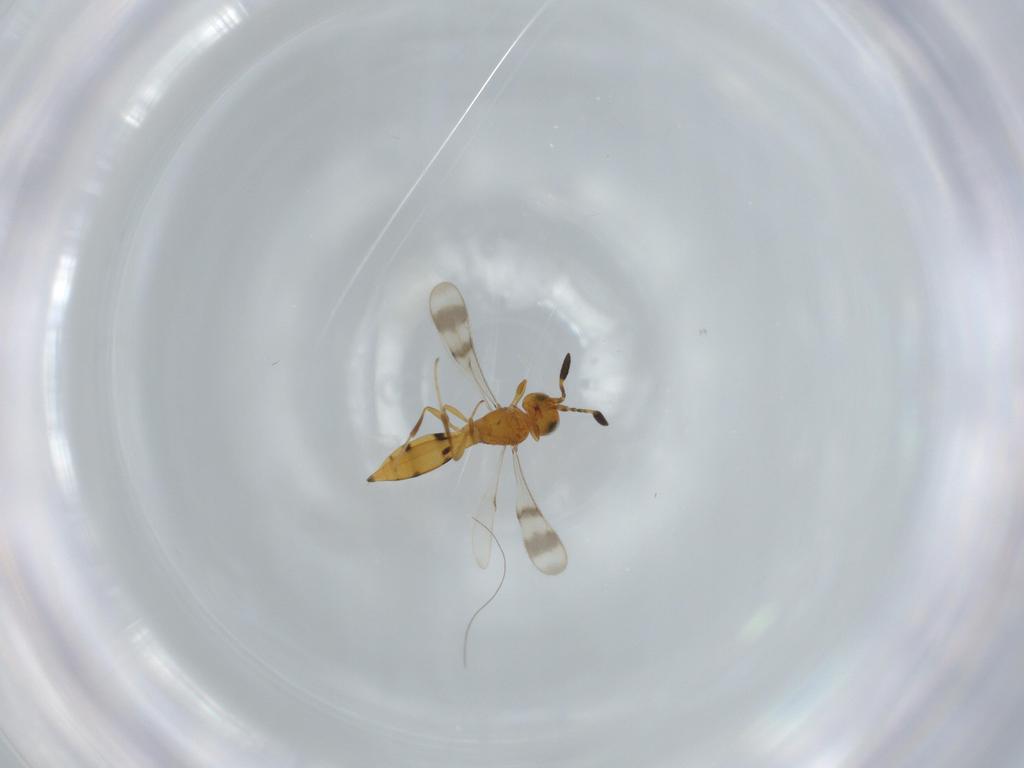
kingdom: Animalia
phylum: Arthropoda
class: Insecta
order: Hymenoptera
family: Scelionidae
